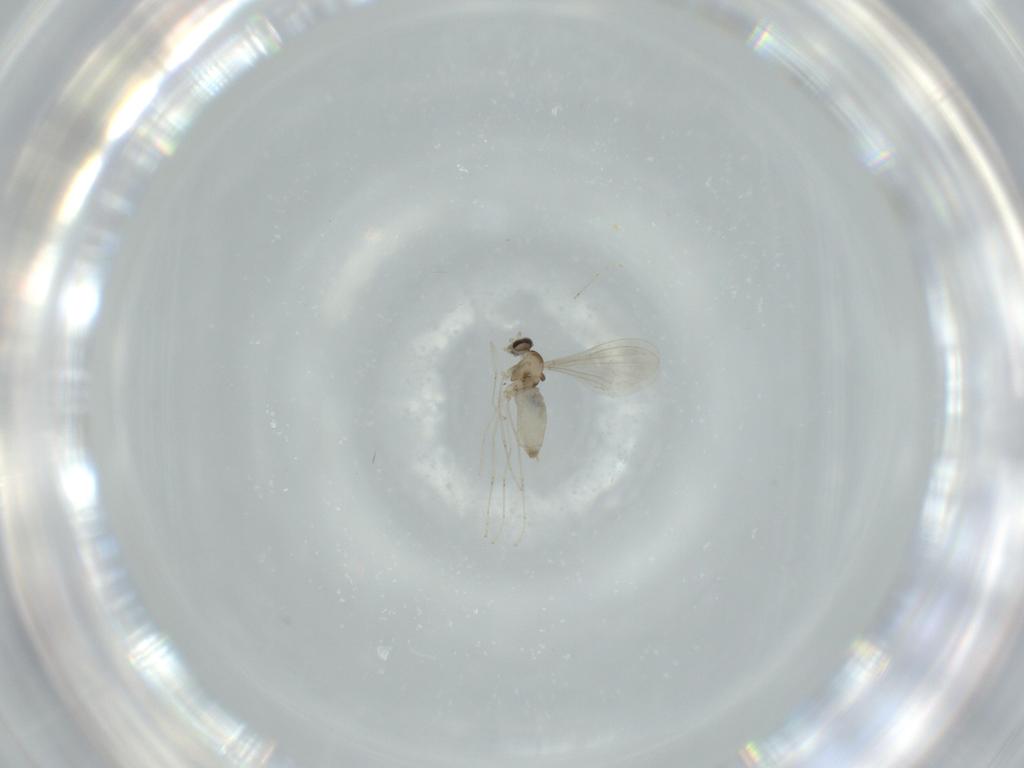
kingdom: Animalia
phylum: Arthropoda
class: Insecta
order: Diptera
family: Cecidomyiidae
